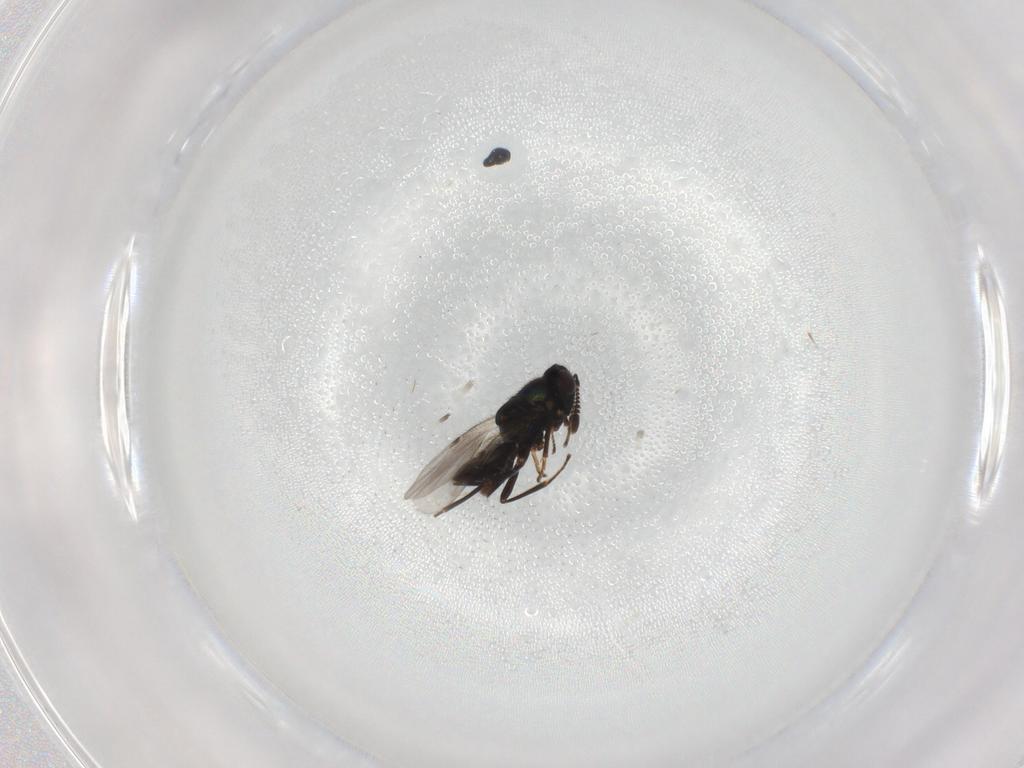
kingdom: Animalia
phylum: Arthropoda
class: Insecta
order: Hymenoptera
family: Encyrtidae
